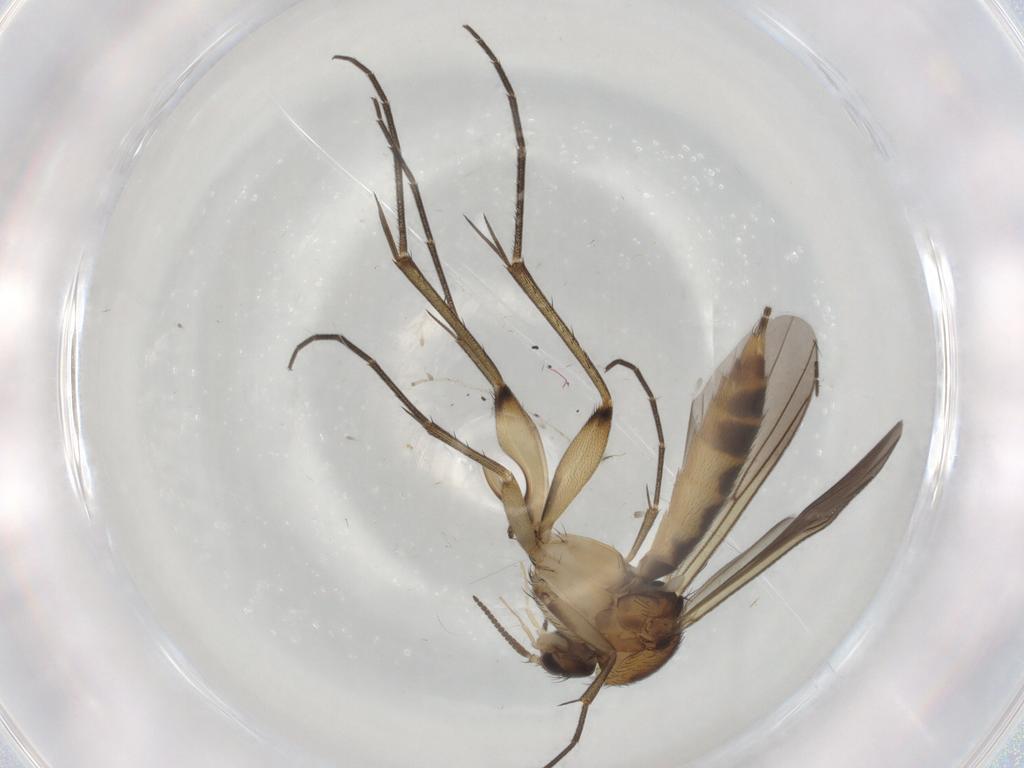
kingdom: Animalia
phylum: Arthropoda
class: Insecta
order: Diptera
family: Mycetophilidae
